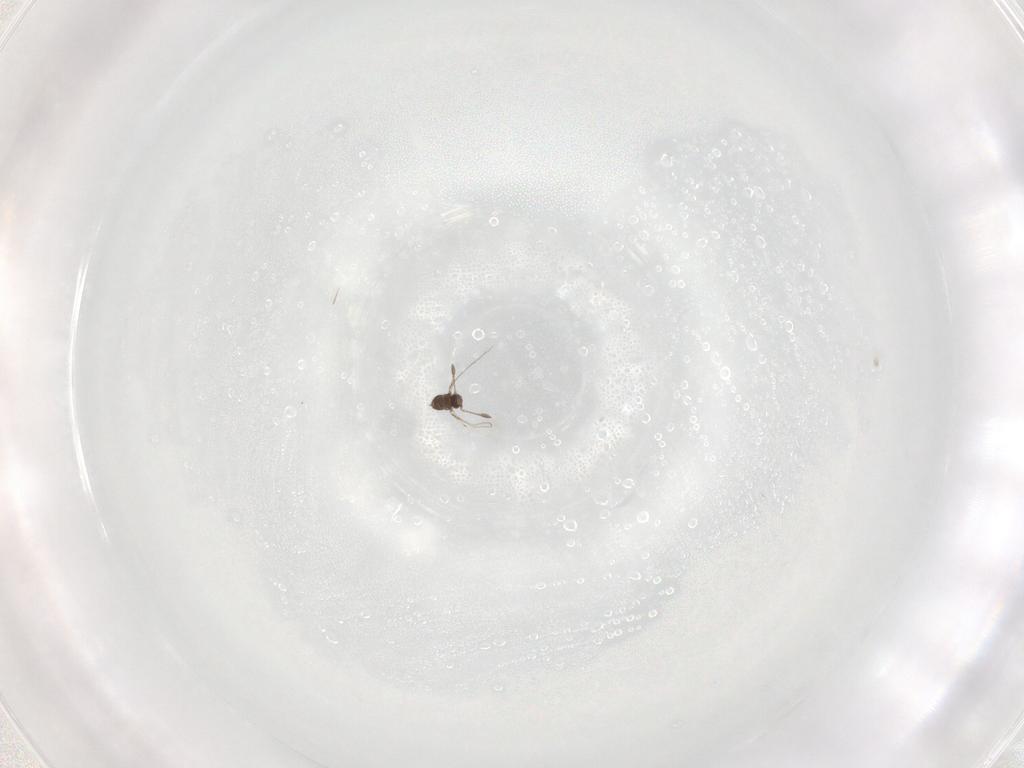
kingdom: Animalia
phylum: Arthropoda
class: Insecta
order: Hymenoptera
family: Mymaridae
